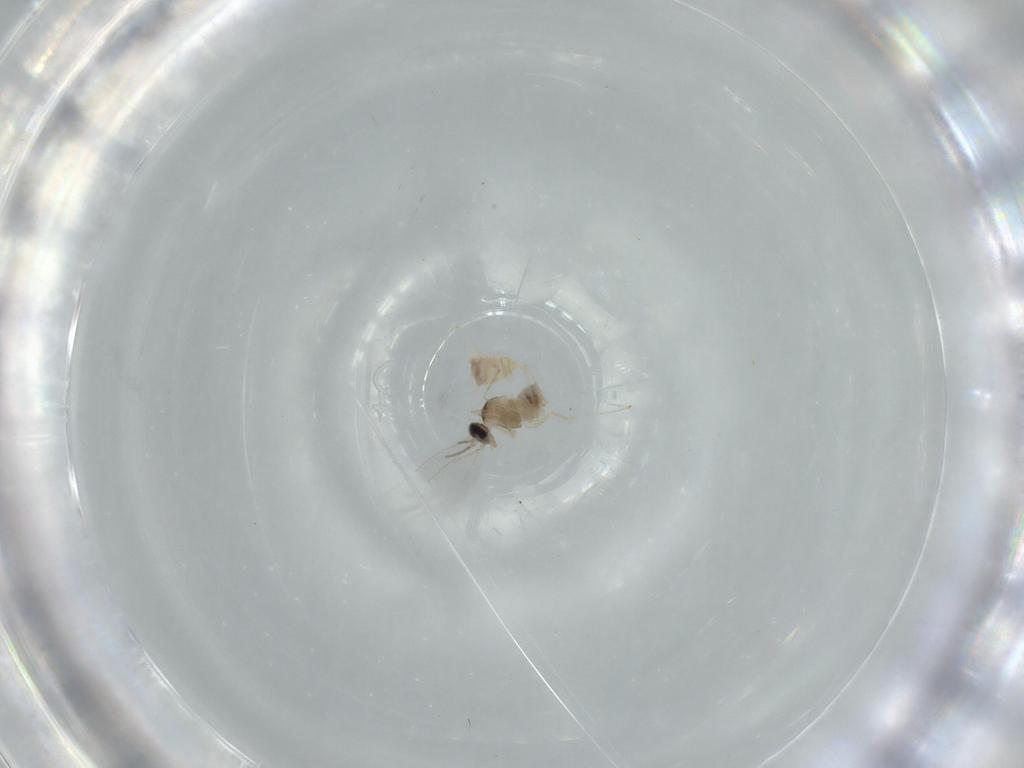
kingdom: Animalia
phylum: Arthropoda
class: Insecta
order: Diptera
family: Cecidomyiidae
